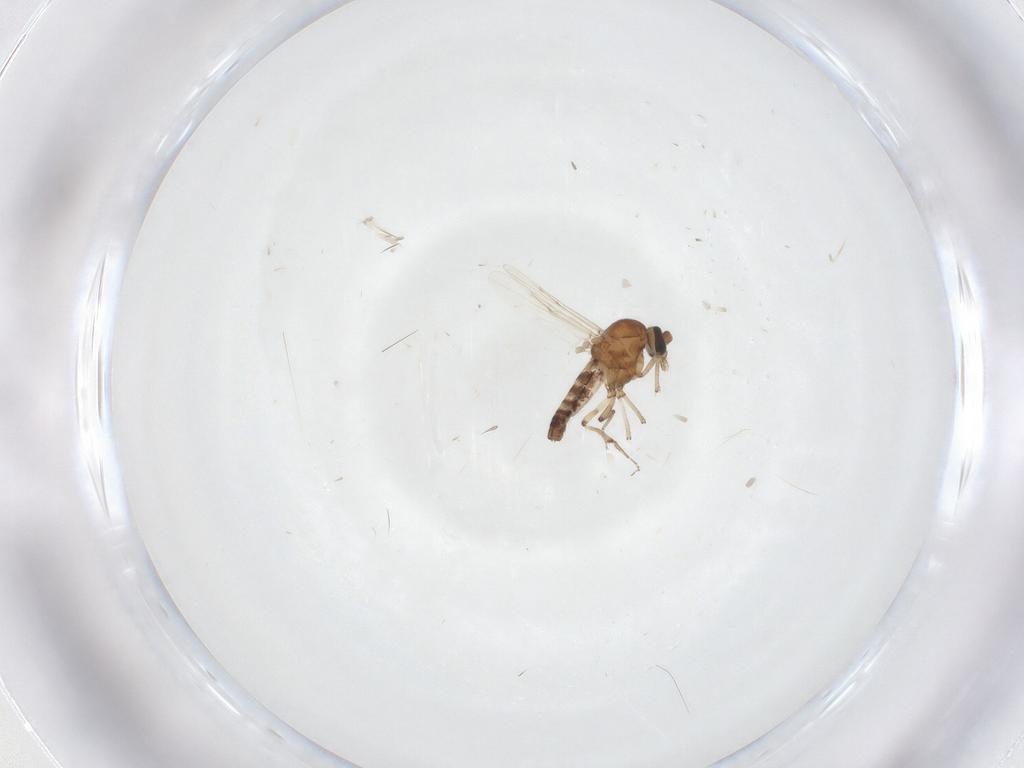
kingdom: Animalia
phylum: Arthropoda
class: Insecta
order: Diptera
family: Ceratopogonidae
